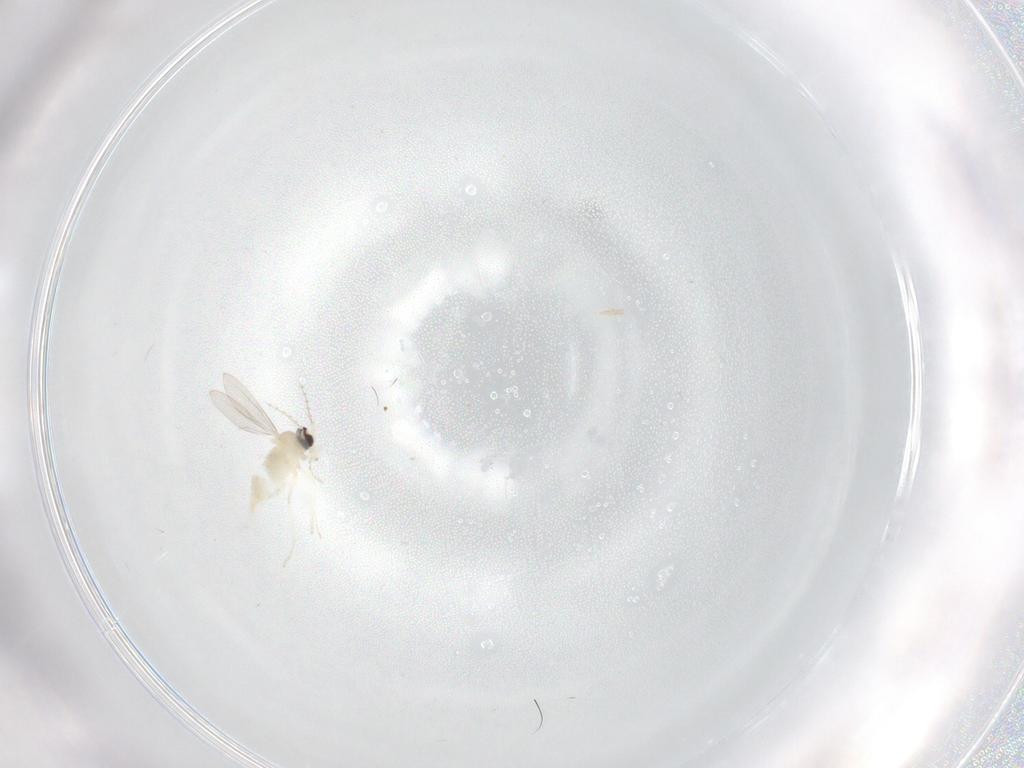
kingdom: Animalia
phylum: Arthropoda
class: Insecta
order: Diptera
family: Cecidomyiidae
